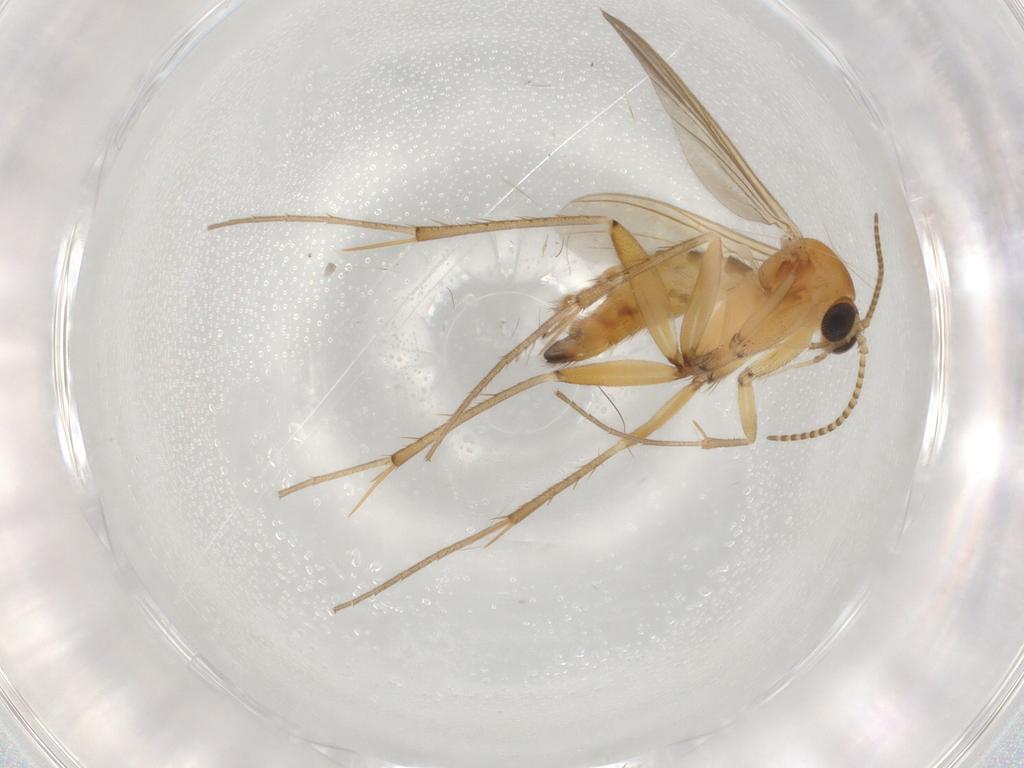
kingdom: Animalia
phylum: Arthropoda
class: Insecta
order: Diptera
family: Mycetophilidae
